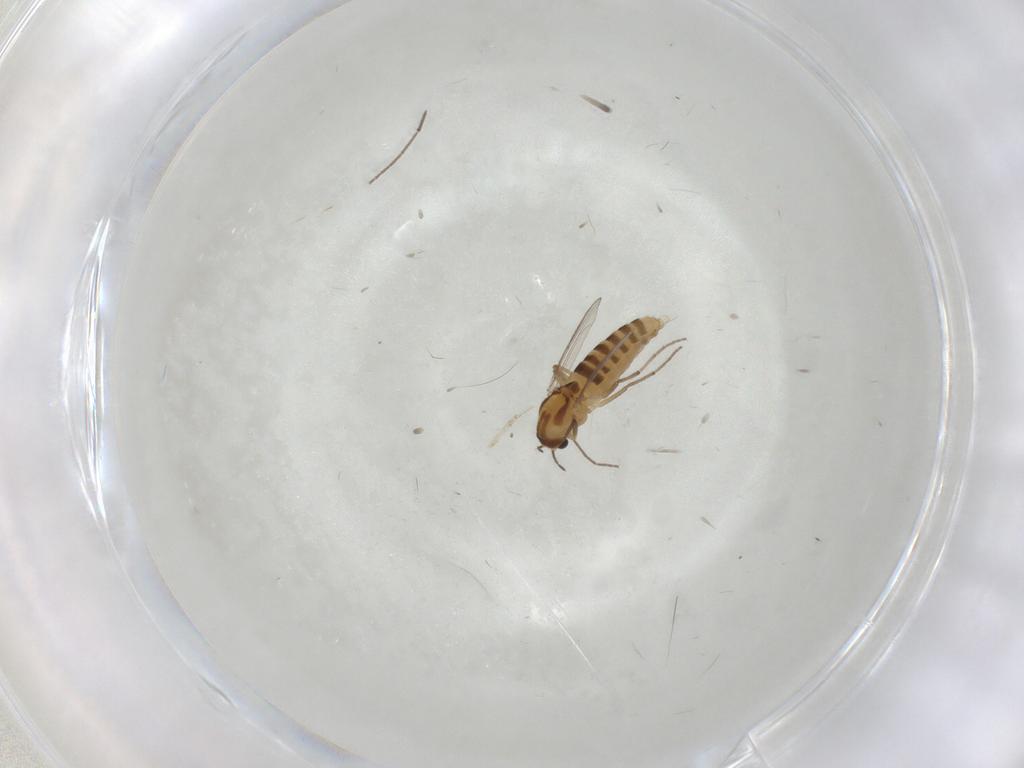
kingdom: Animalia
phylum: Arthropoda
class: Insecta
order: Diptera
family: Chironomidae
